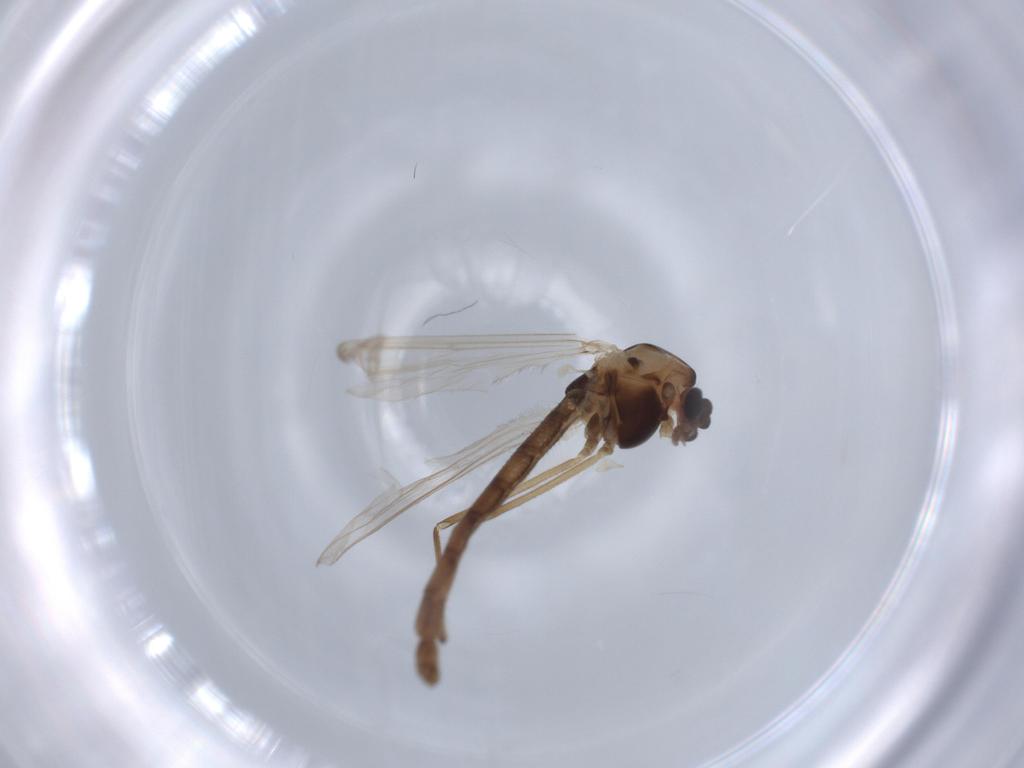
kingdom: Animalia
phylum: Arthropoda
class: Insecta
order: Diptera
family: Chironomidae
